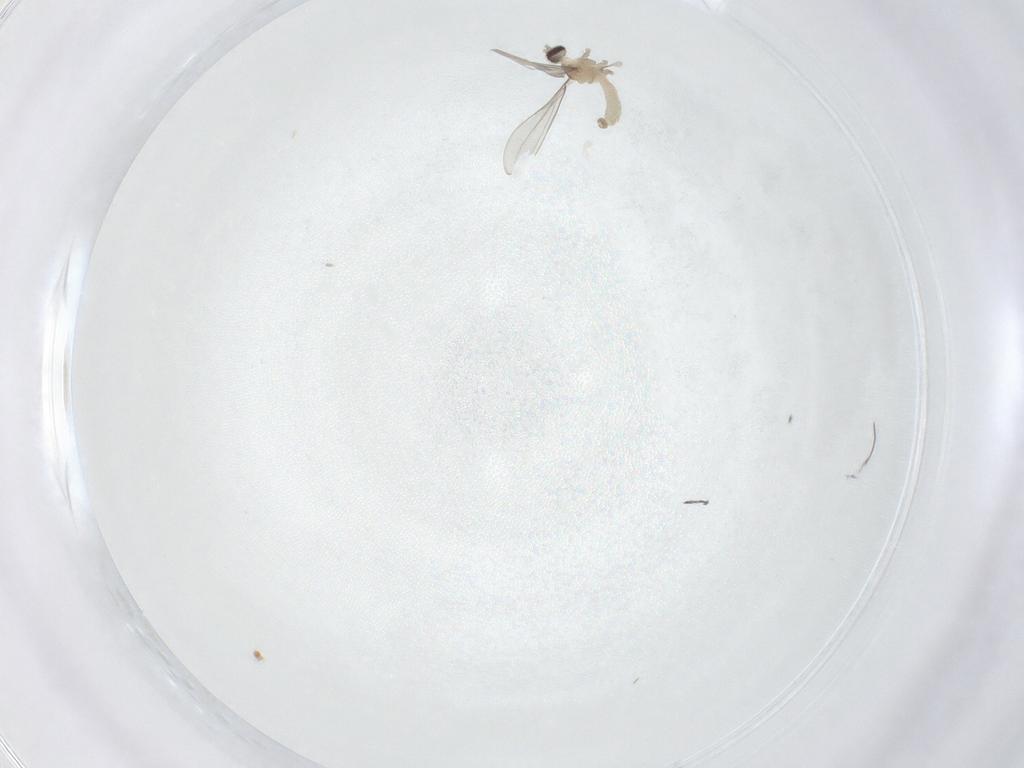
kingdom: Animalia
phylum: Arthropoda
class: Insecta
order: Diptera
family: Cecidomyiidae
